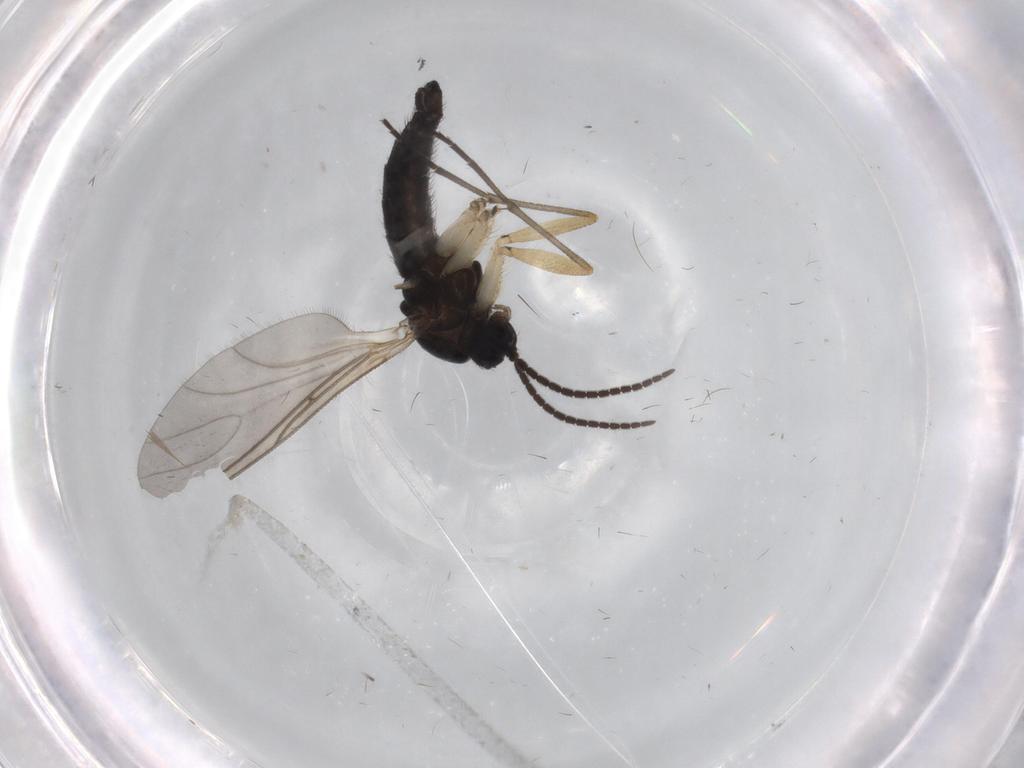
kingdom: Animalia
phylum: Arthropoda
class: Insecta
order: Diptera
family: Sciaridae
